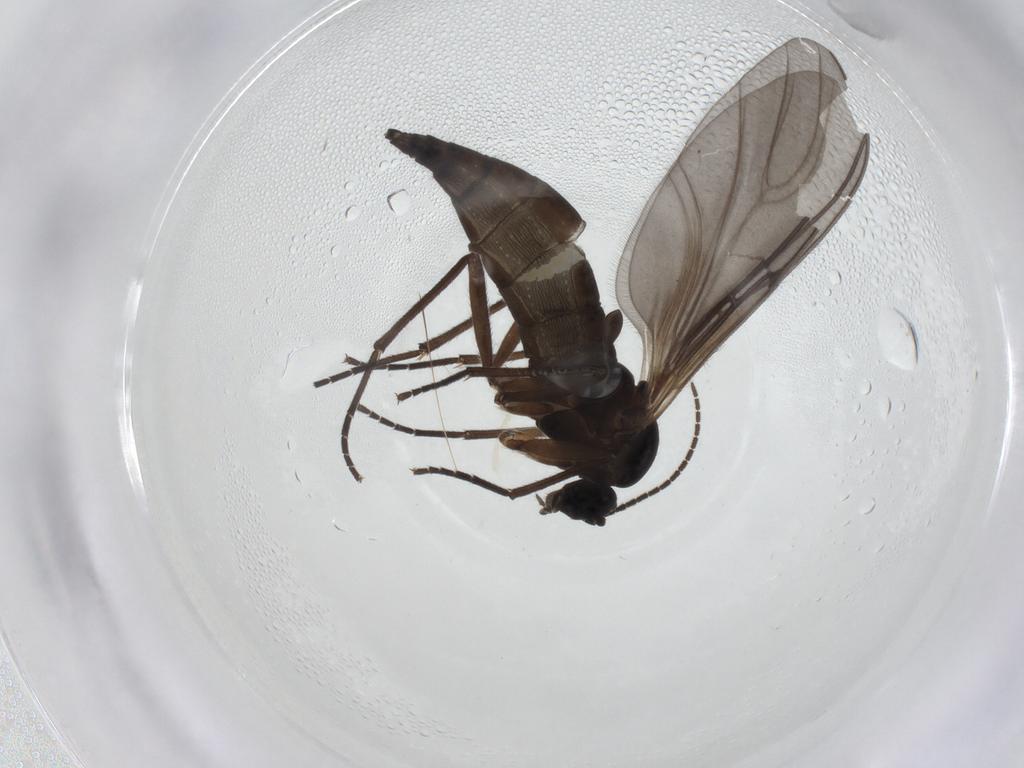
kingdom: Animalia
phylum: Arthropoda
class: Insecta
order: Diptera
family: Sciaridae
